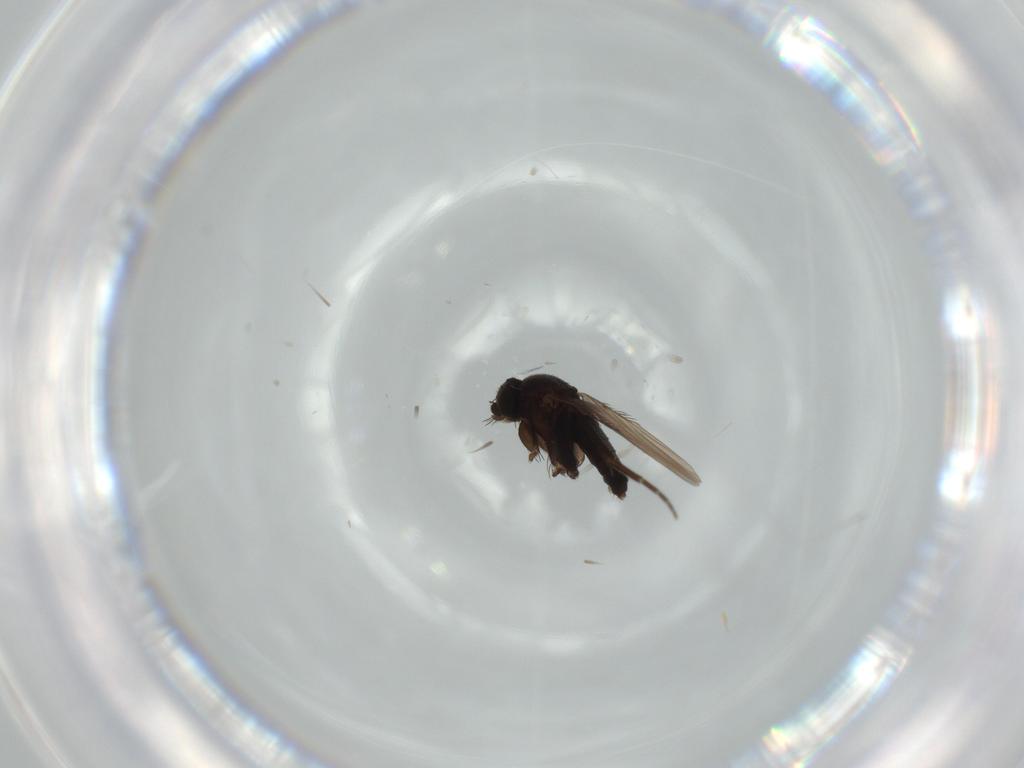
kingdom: Animalia
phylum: Arthropoda
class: Insecta
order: Diptera
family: Cecidomyiidae
